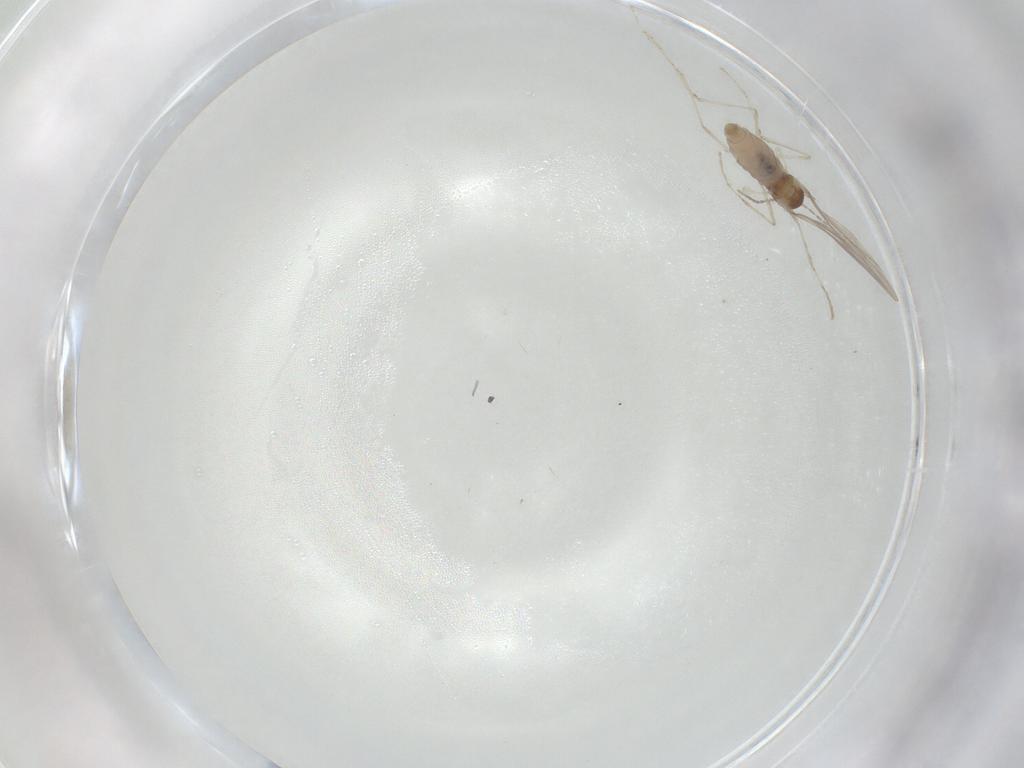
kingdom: Animalia
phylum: Arthropoda
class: Insecta
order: Diptera
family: Cecidomyiidae
